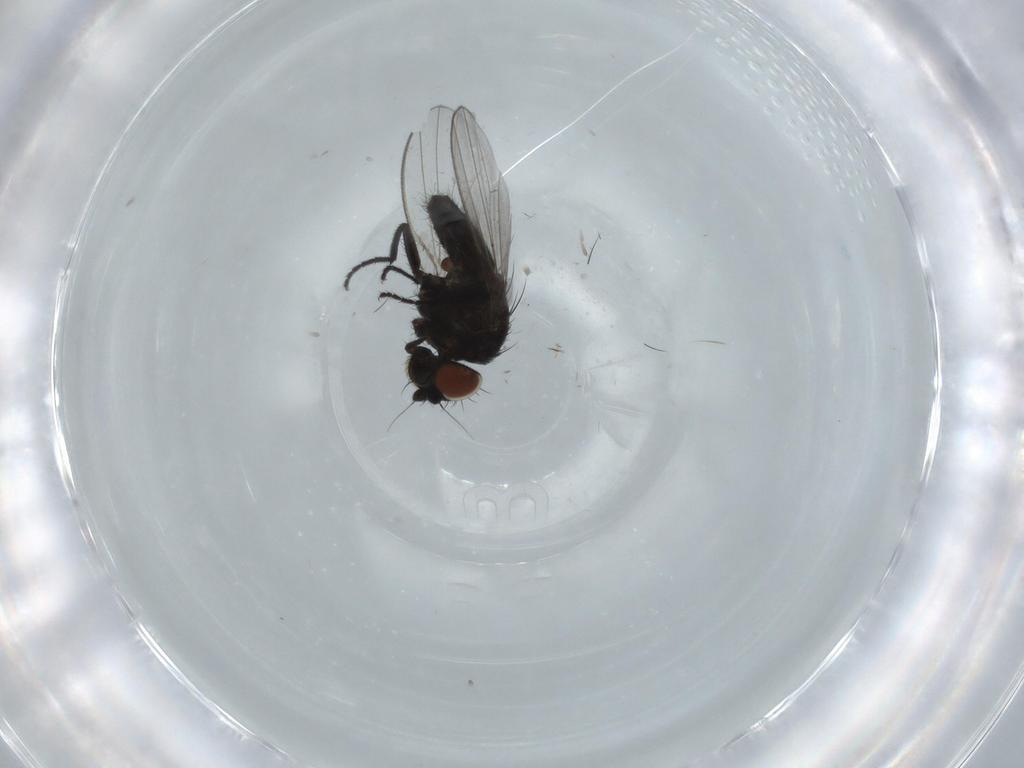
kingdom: Animalia
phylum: Arthropoda
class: Insecta
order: Diptera
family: Milichiidae
